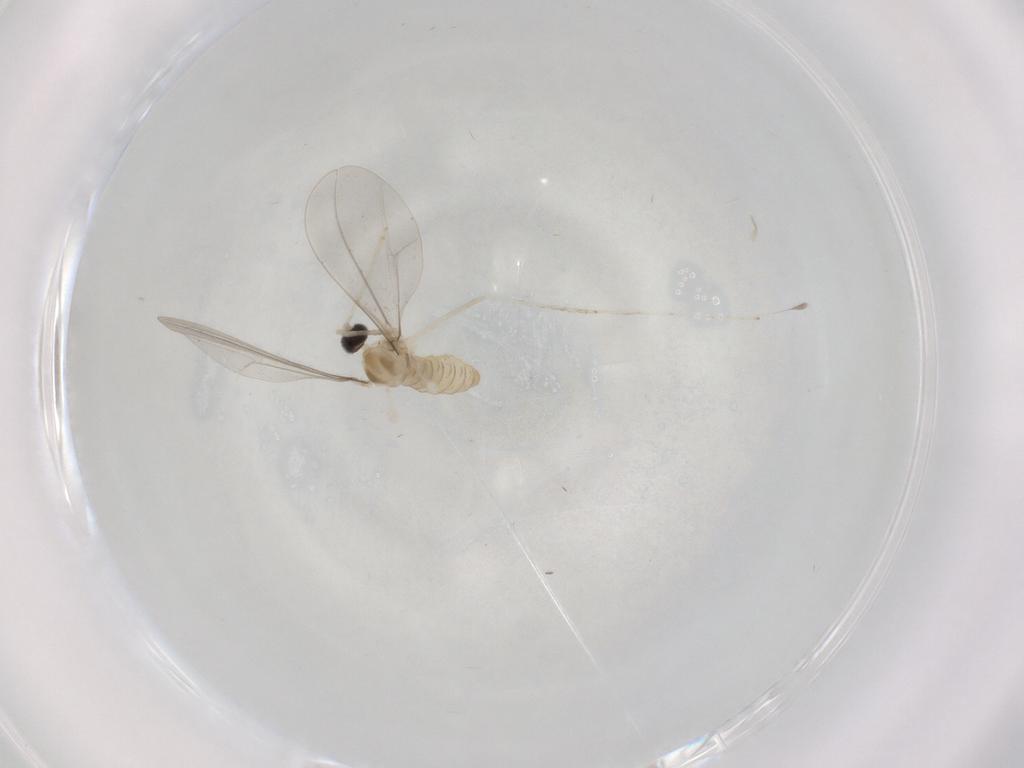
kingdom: Animalia
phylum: Arthropoda
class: Insecta
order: Diptera
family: Cecidomyiidae
